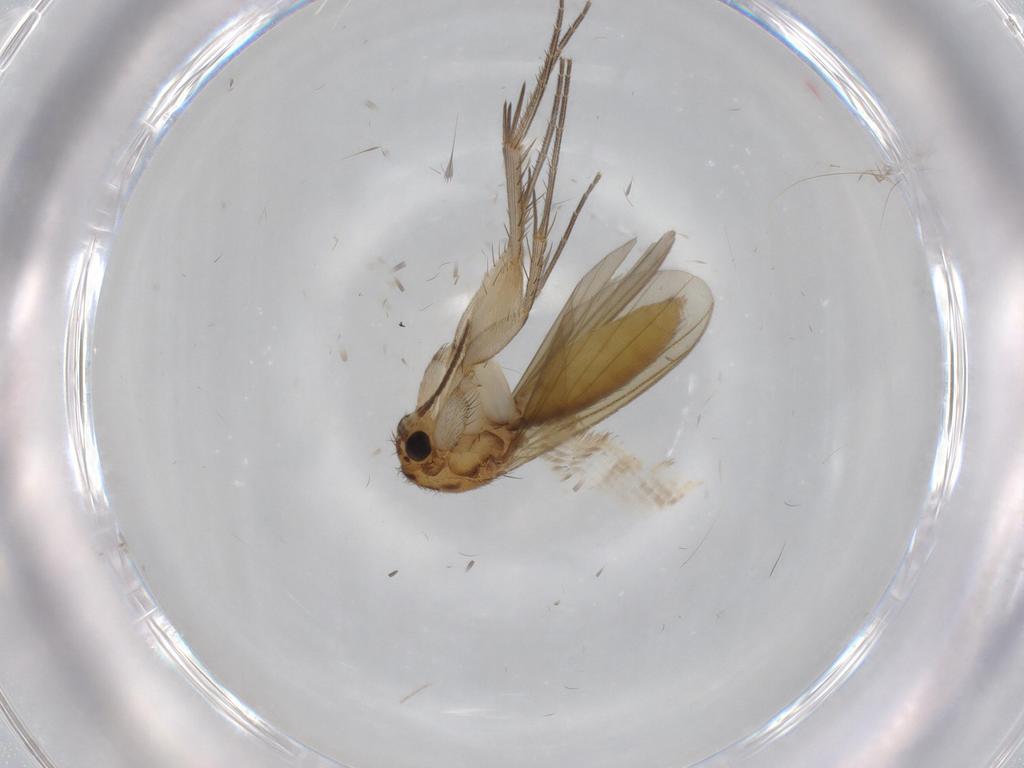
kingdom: Animalia
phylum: Arthropoda
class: Insecta
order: Diptera
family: Mycetophilidae
